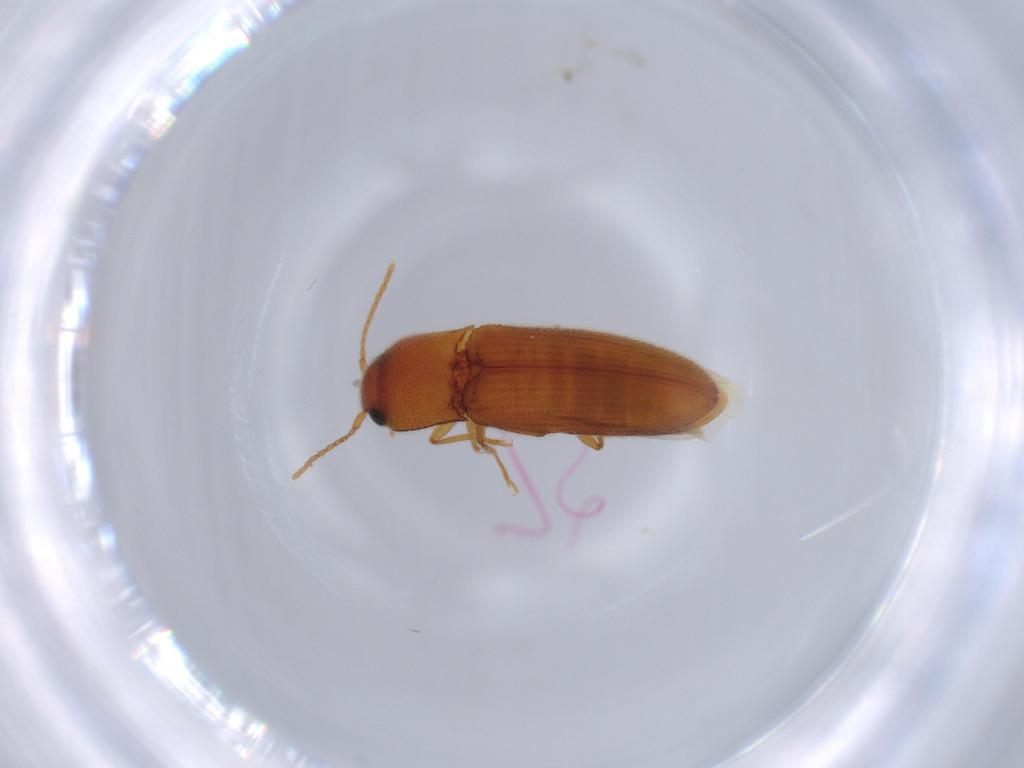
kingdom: Animalia
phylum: Arthropoda
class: Insecta
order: Coleoptera
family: Elateridae
